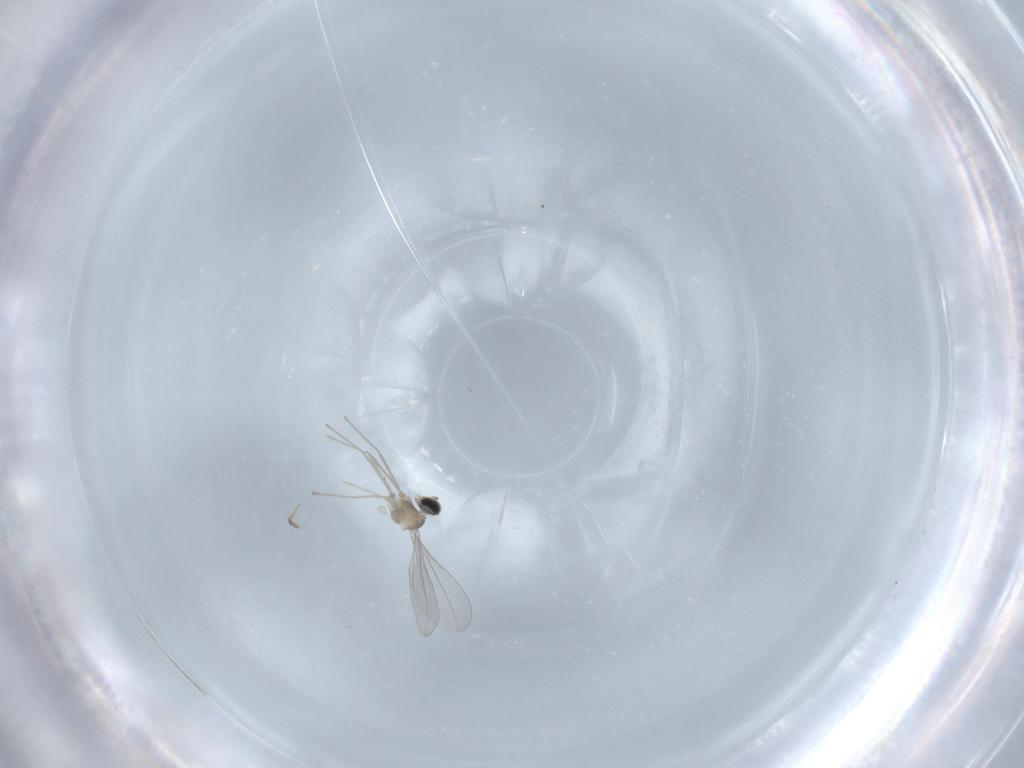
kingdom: Animalia
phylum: Arthropoda
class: Insecta
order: Diptera
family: Cecidomyiidae
